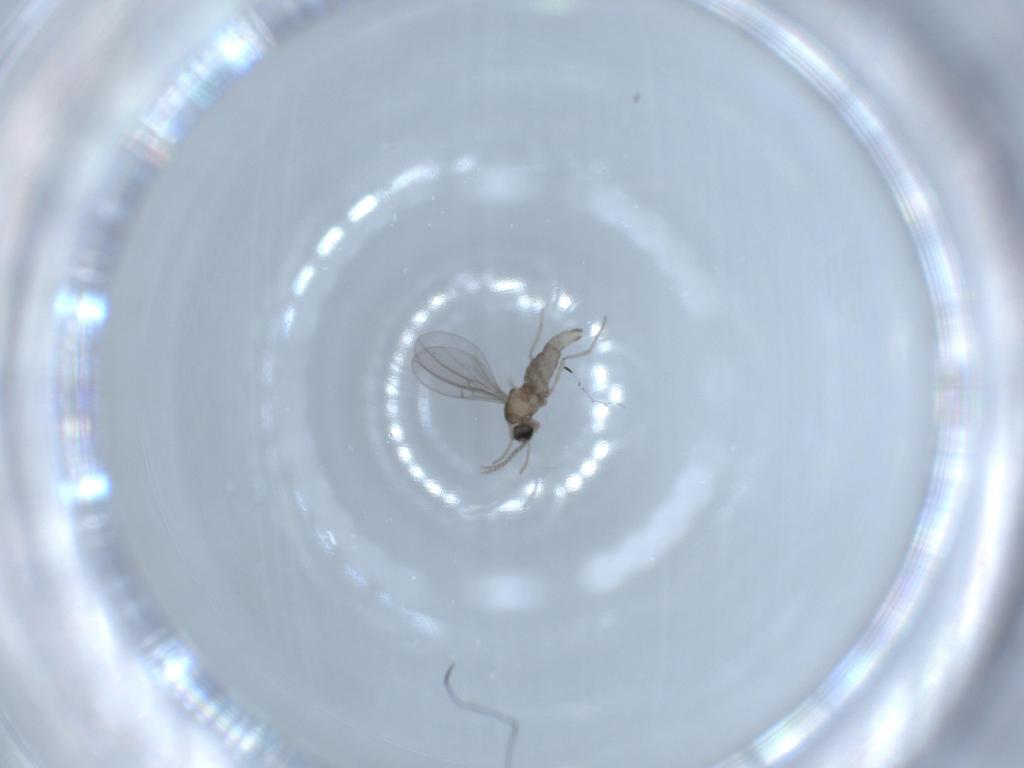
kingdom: Animalia
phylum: Arthropoda
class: Insecta
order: Diptera
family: Cecidomyiidae
